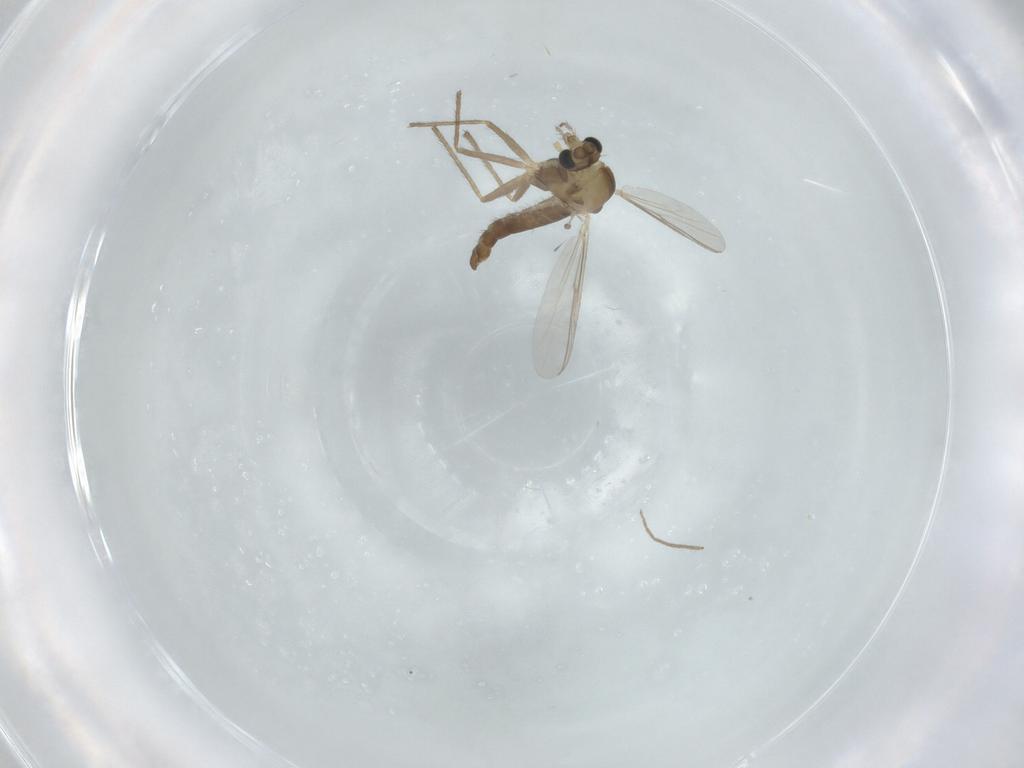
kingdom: Animalia
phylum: Arthropoda
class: Insecta
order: Diptera
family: Chironomidae
